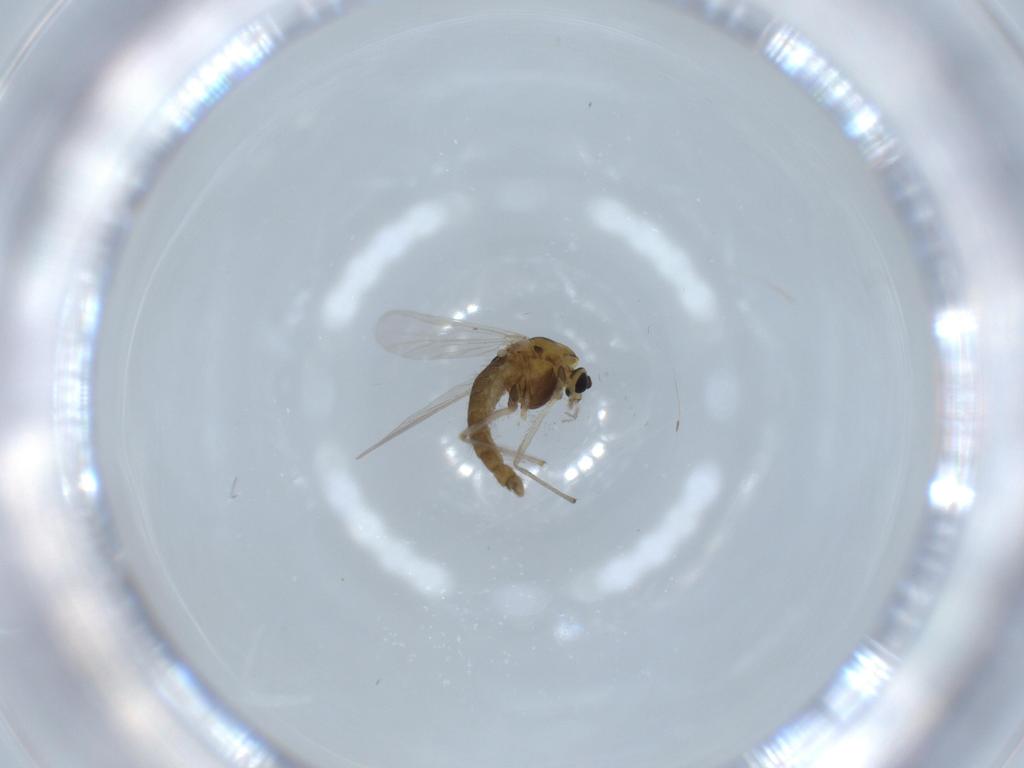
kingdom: Animalia
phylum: Arthropoda
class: Insecta
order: Diptera
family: Chironomidae
